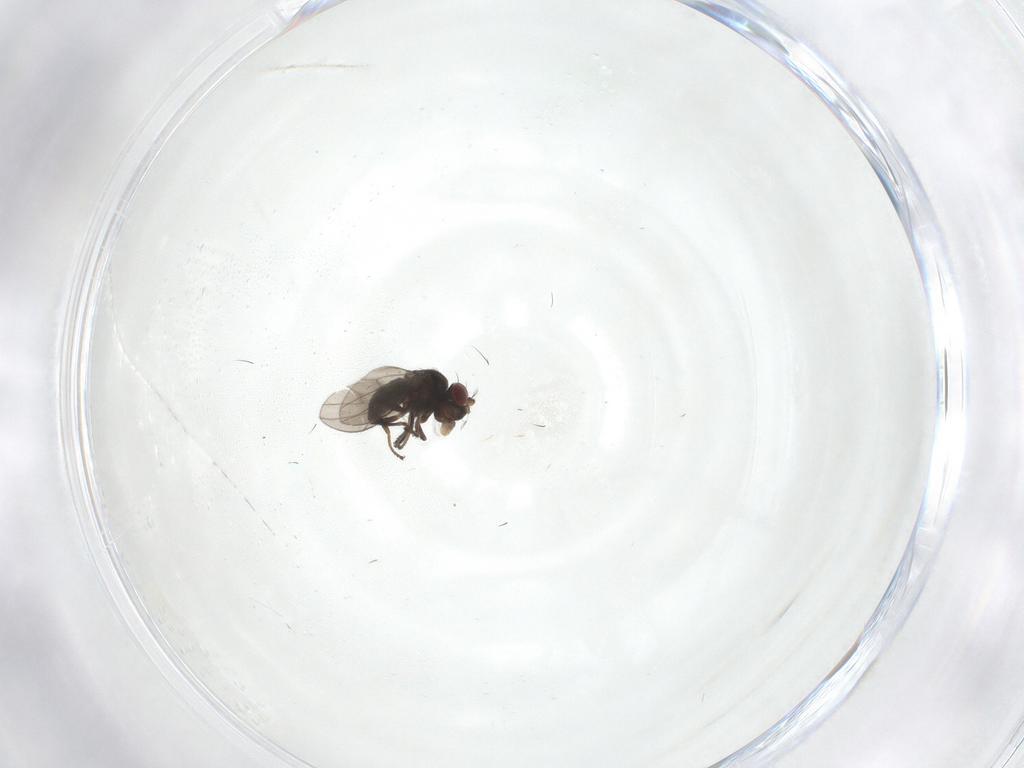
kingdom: Animalia
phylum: Arthropoda
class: Insecta
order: Diptera
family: Ephydridae
